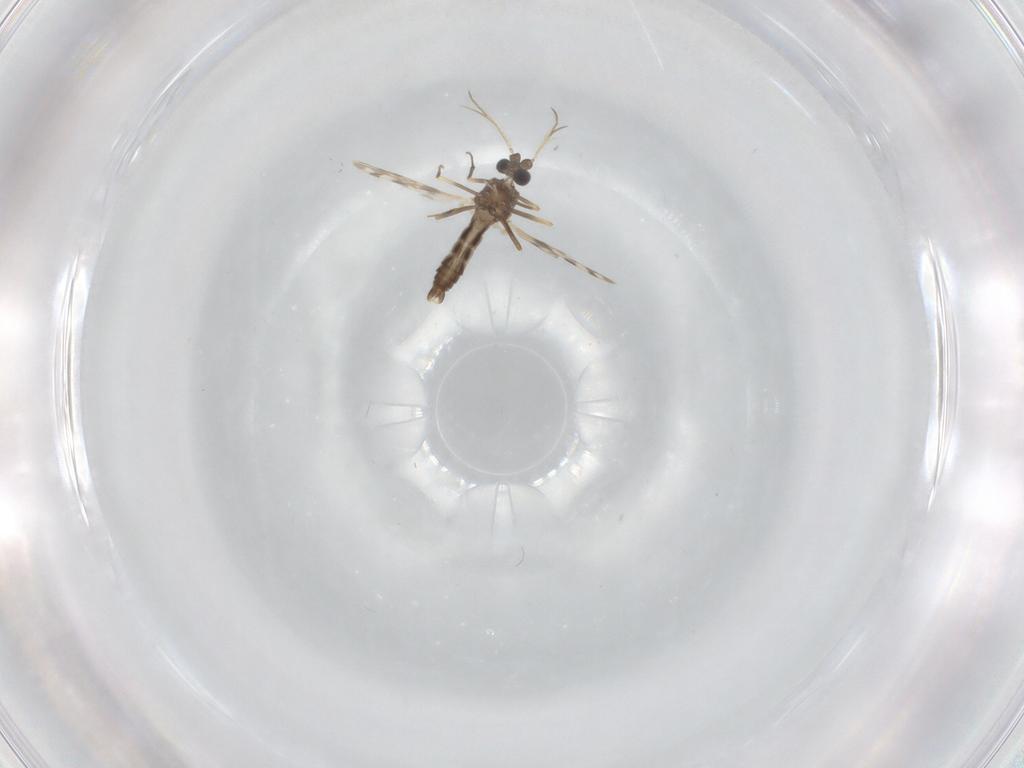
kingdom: Animalia
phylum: Arthropoda
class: Insecta
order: Diptera
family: Ceratopogonidae
